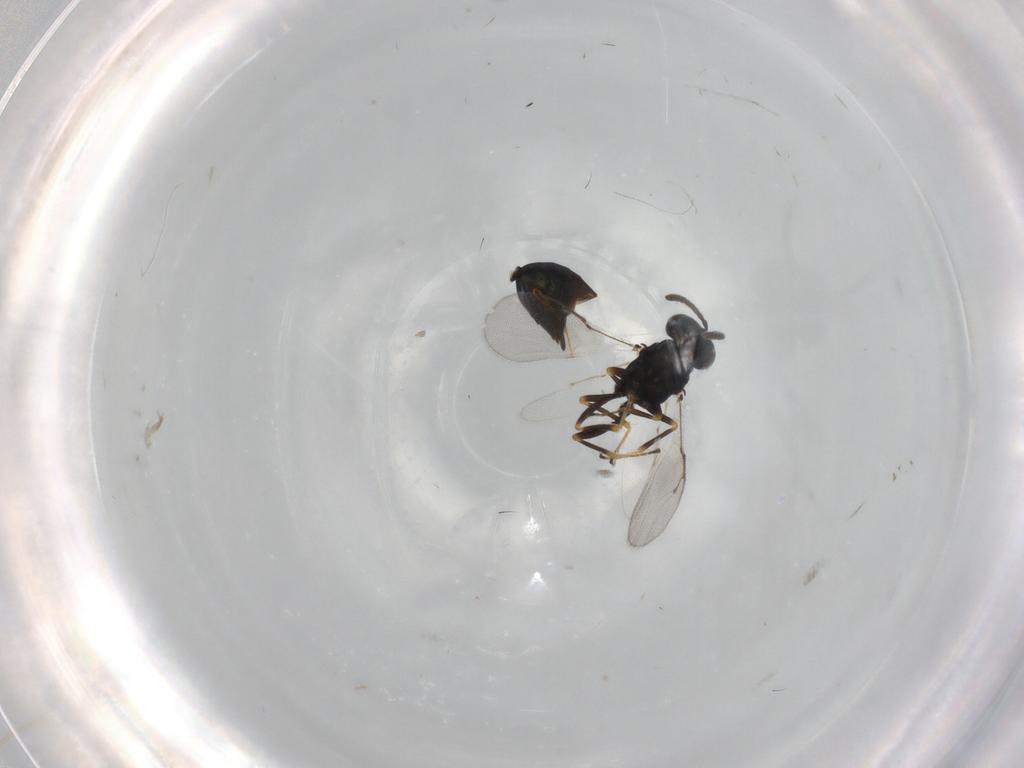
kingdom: Animalia
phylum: Arthropoda
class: Insecta
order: Hymenoptera
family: Pteromalidae
